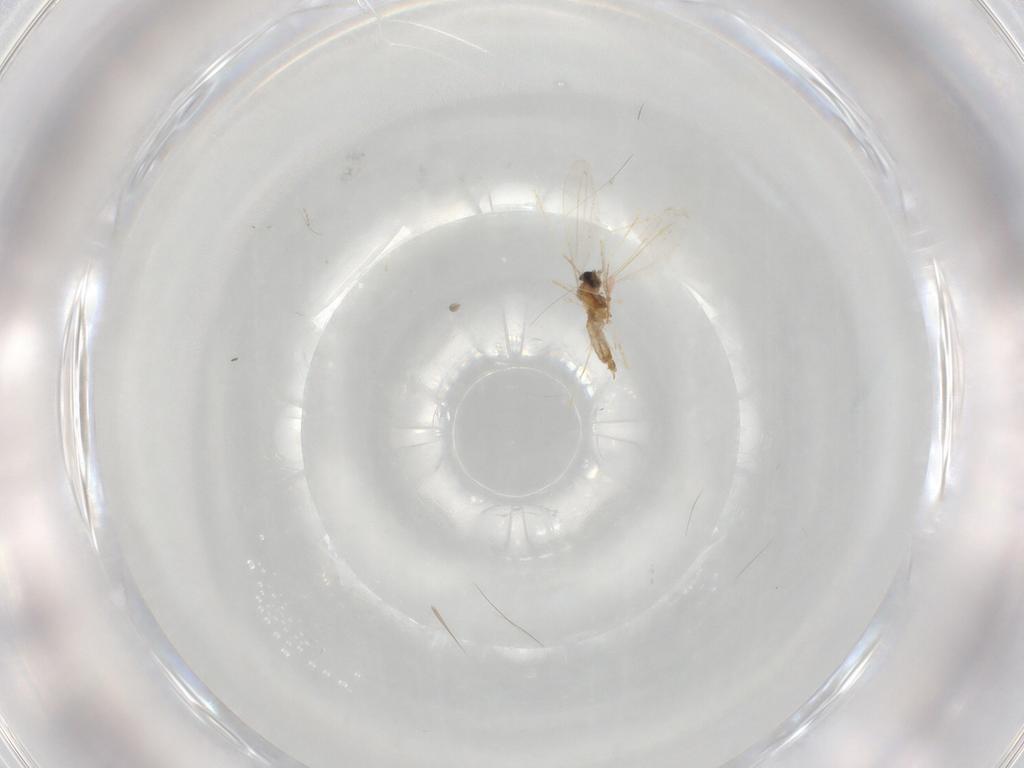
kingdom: Animalia
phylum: Arthropoda
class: Insecta
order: Diptera
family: Cecidomyiidae
